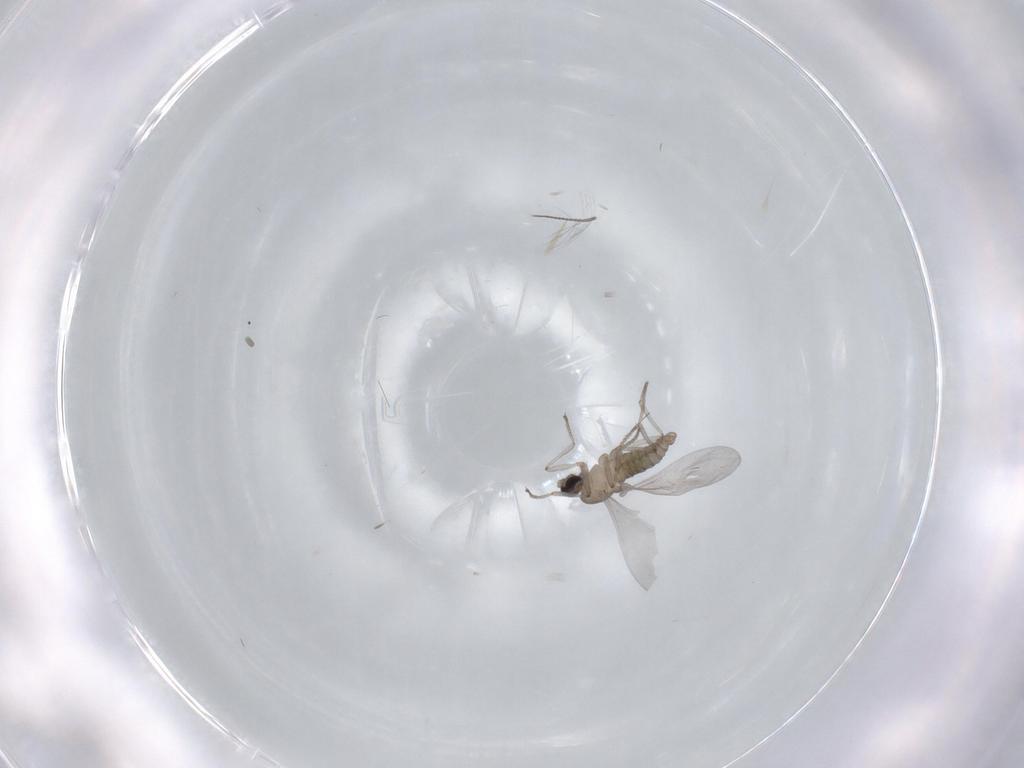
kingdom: Animalia
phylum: Arthropoda
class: Insecta
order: Diptera
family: Cecidomyiidae
